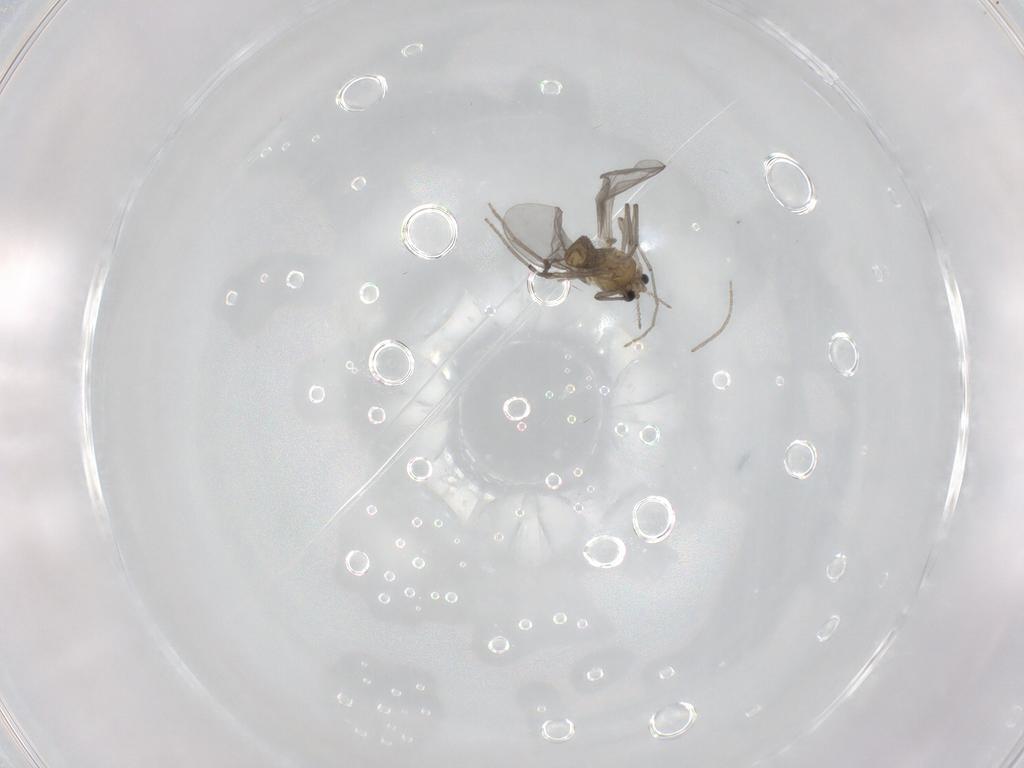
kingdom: Animalia
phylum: Arthropoda
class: Insecta
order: Diptera
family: Chironomidae
